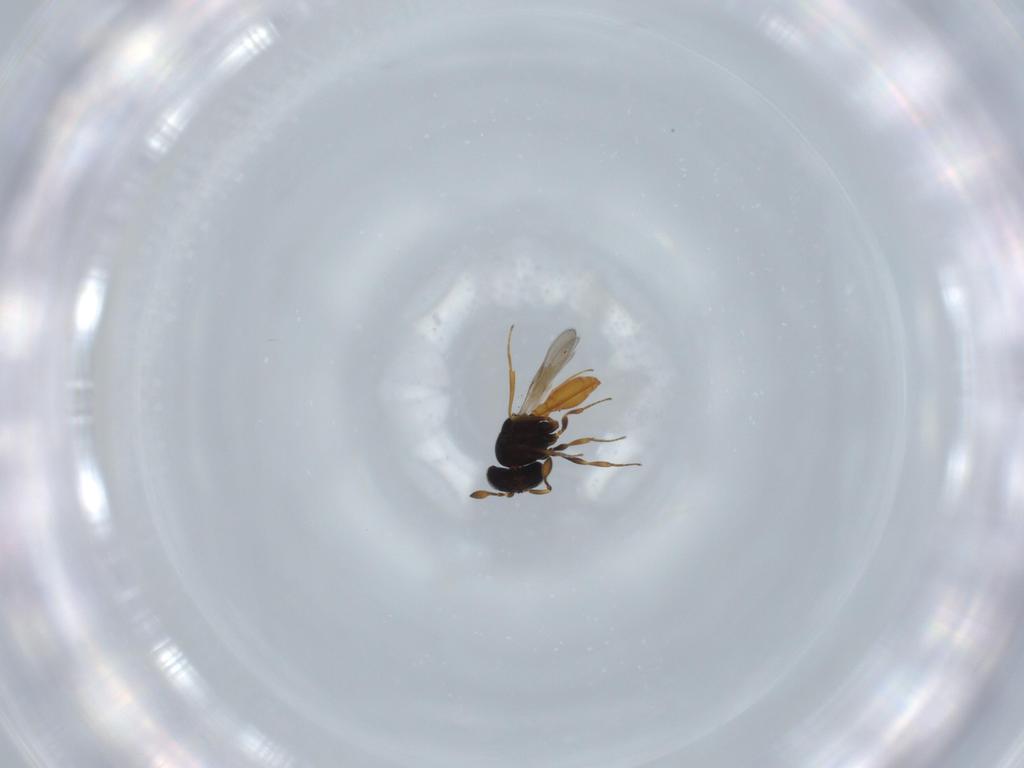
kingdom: Animalia
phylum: Arthropoda
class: Insecta
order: Hymenoptera
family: Scelionidae
